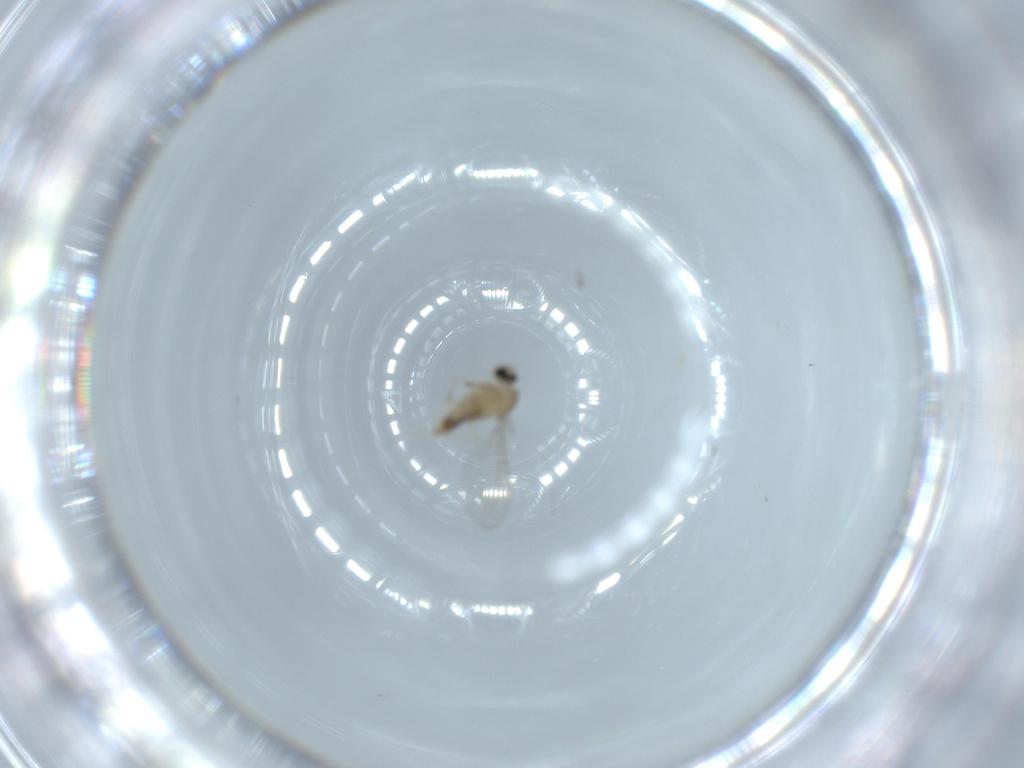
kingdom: Animalia
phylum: Arthropoda
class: Insecta
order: Diptera
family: Cecidomyiidae
